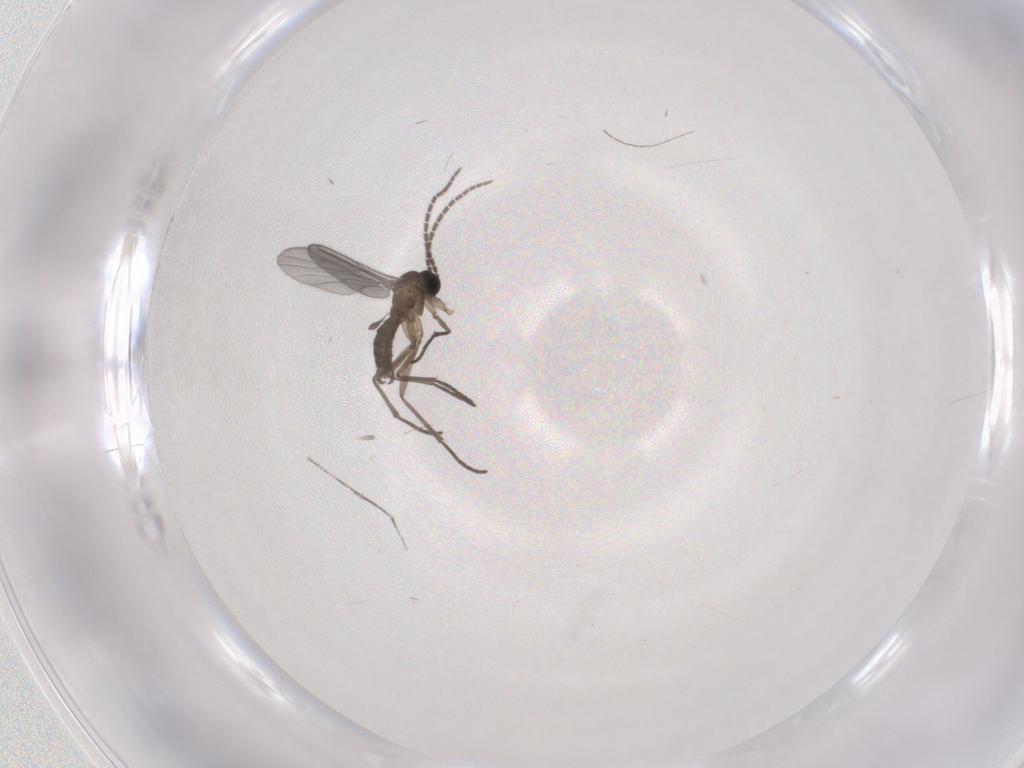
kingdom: Animalia
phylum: Arthropoda
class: Insecta
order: Diptera
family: Sciaridae
